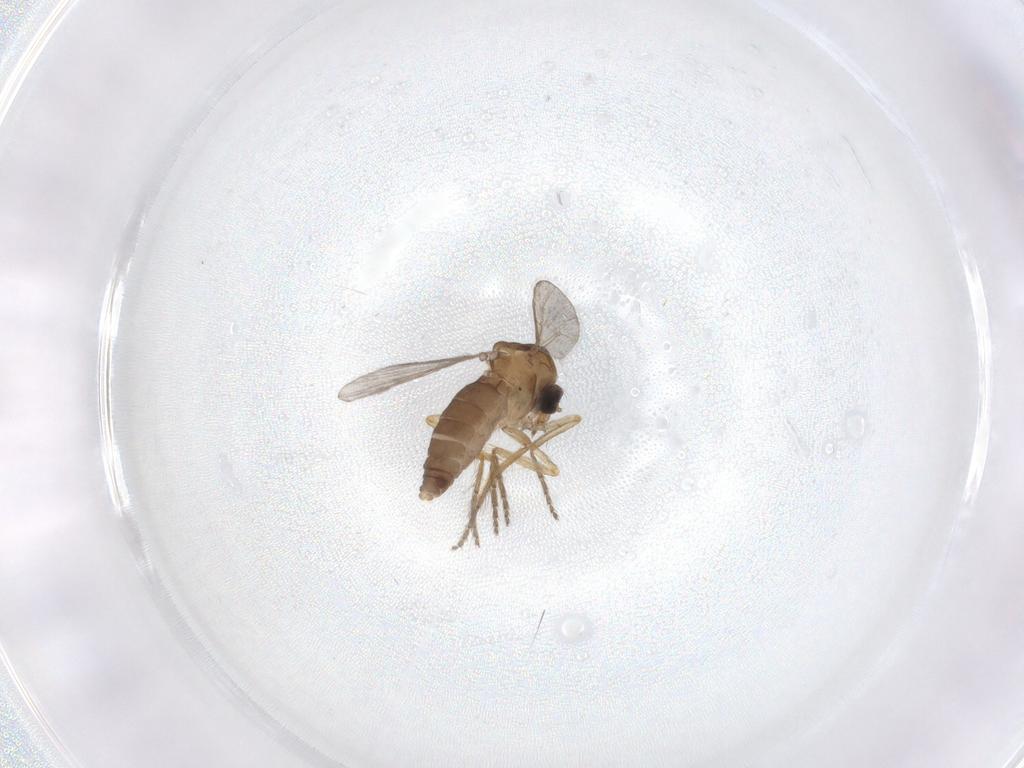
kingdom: Animalia
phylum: Arthropoda
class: Insecta
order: Diptera
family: Ceratopogonidae
